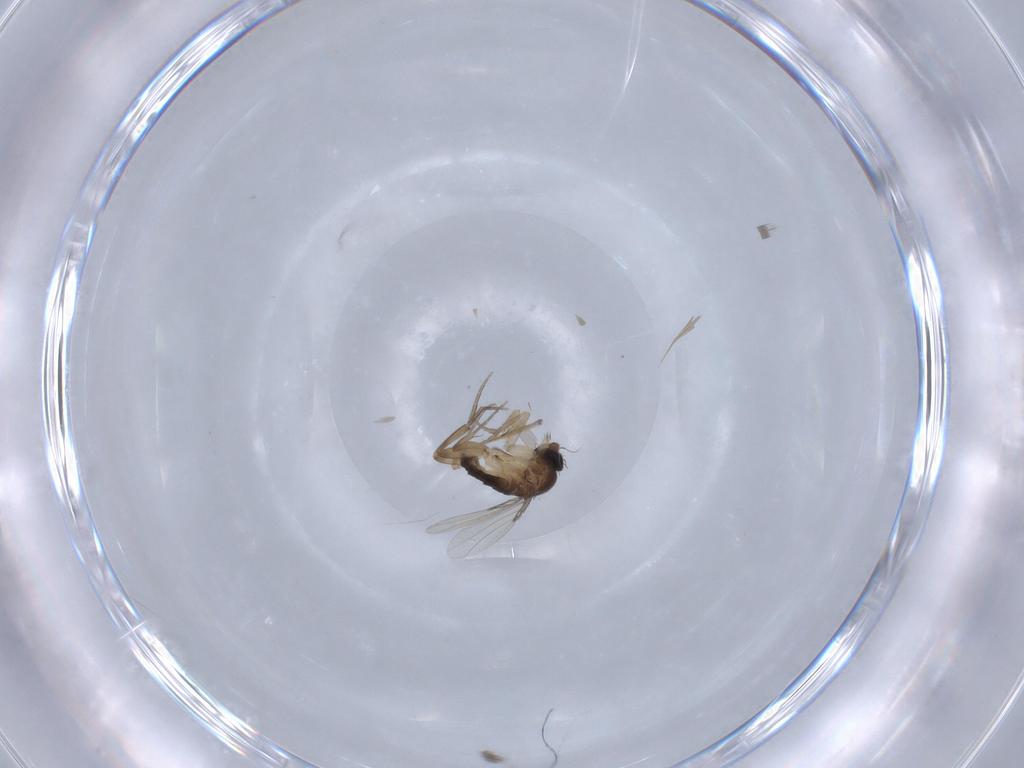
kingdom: Animalia
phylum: Arthropoda
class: Insecta
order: Diptera
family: Phoridae
